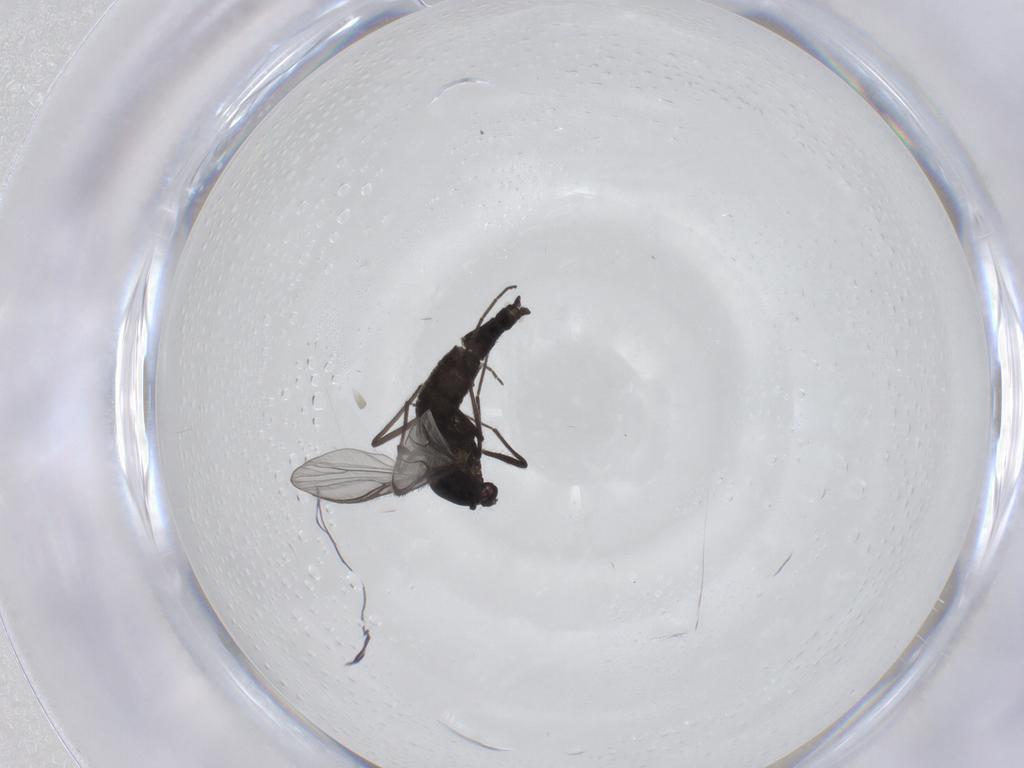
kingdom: Animalia
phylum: Arthropoda
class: Insecta
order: Diptera
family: Chironomidae
